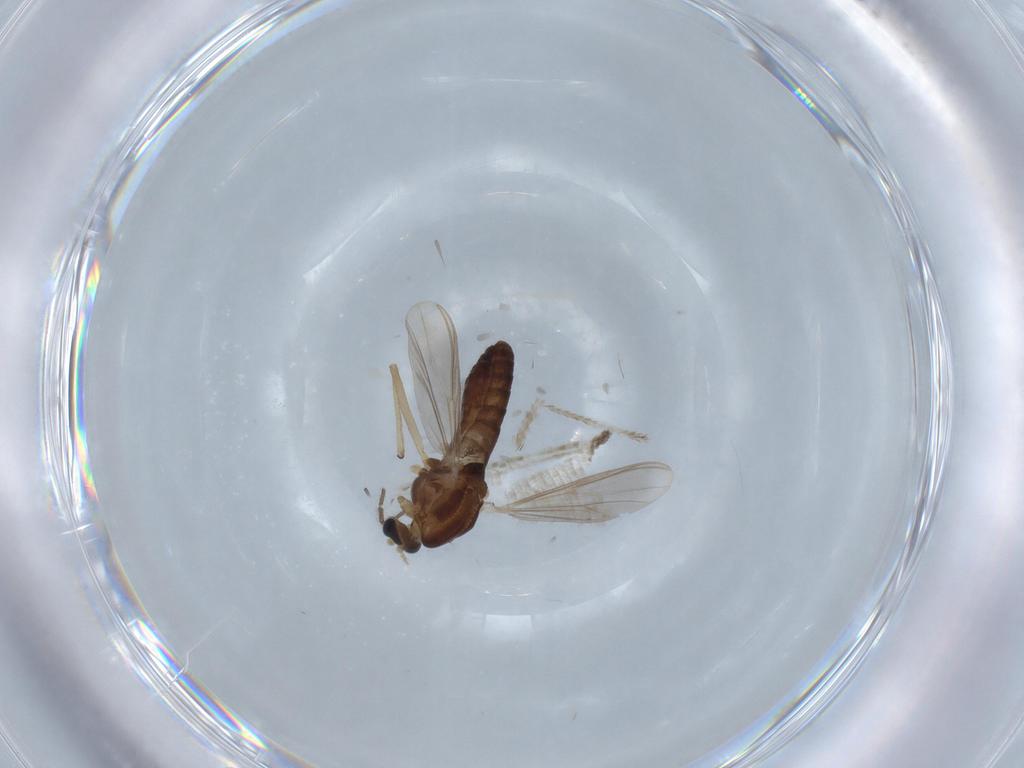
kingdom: Animalia
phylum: Arthropoda
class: Insecta
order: Diptera
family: Chironomidae
